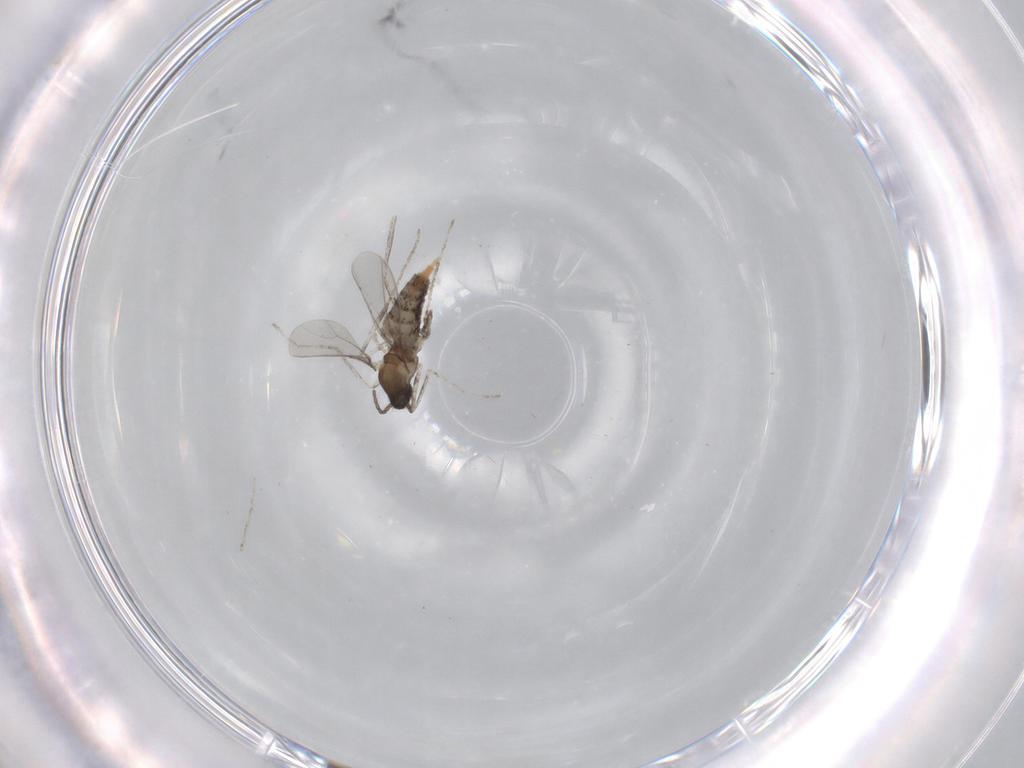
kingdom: Animalia
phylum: Arthropoda
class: Insecta
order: Diptera
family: Cecidomyiidae
